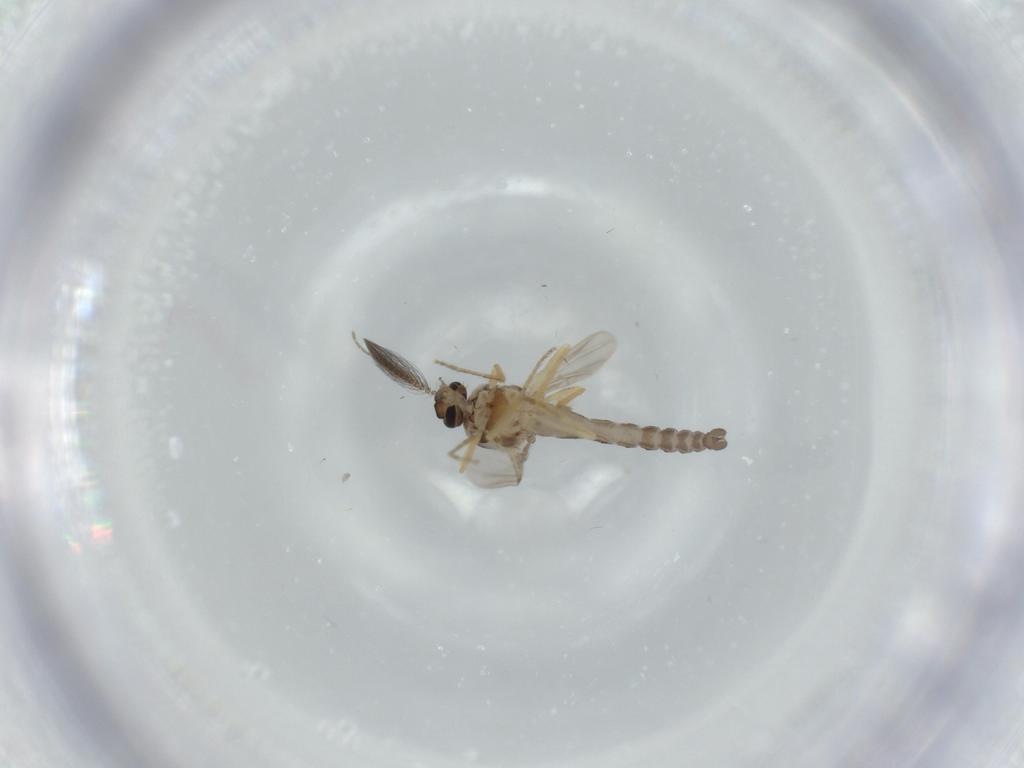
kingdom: Animalia
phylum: Arthropoda
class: Insecta
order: Diptera
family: Ceratopogonidae
